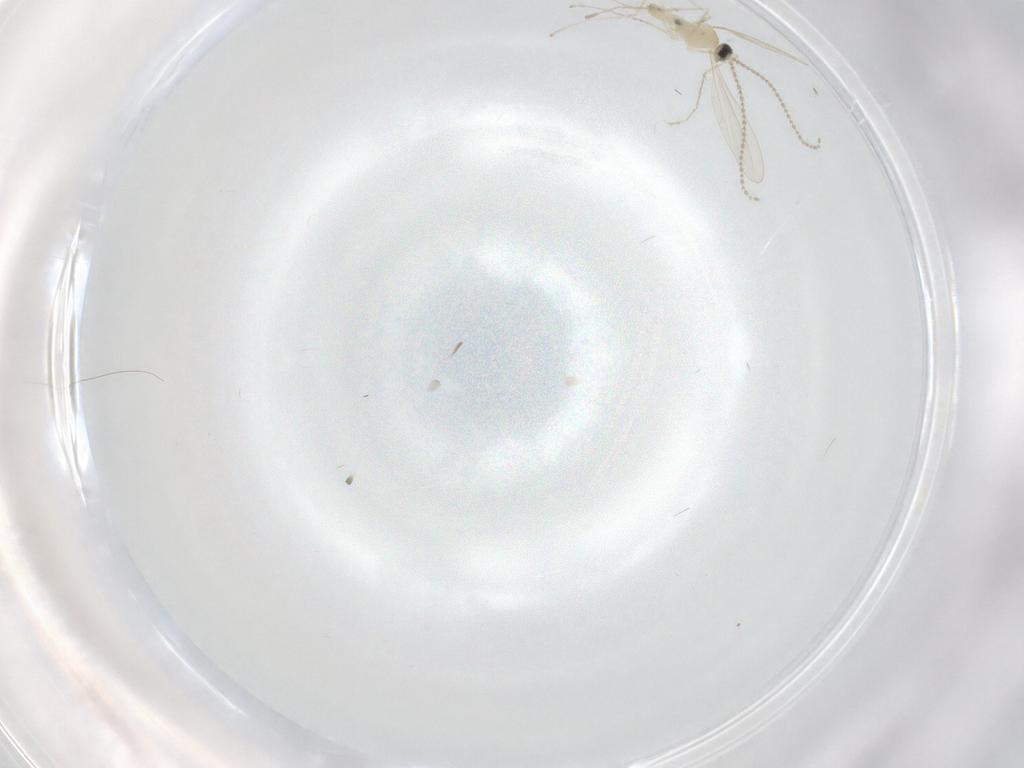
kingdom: Animalia
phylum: Arthropoda
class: Insecta
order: Diptera
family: Cecidomyiidae
